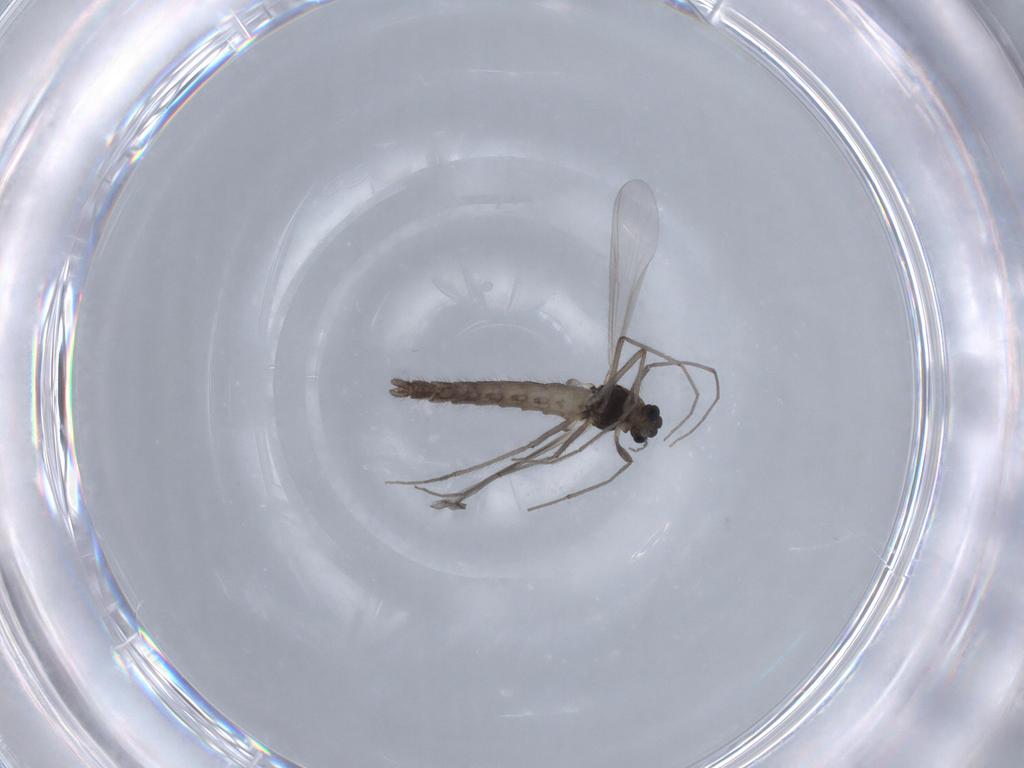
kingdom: Animalia
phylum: Arthropoda
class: Insecta
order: Diptera
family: Chironomidae
